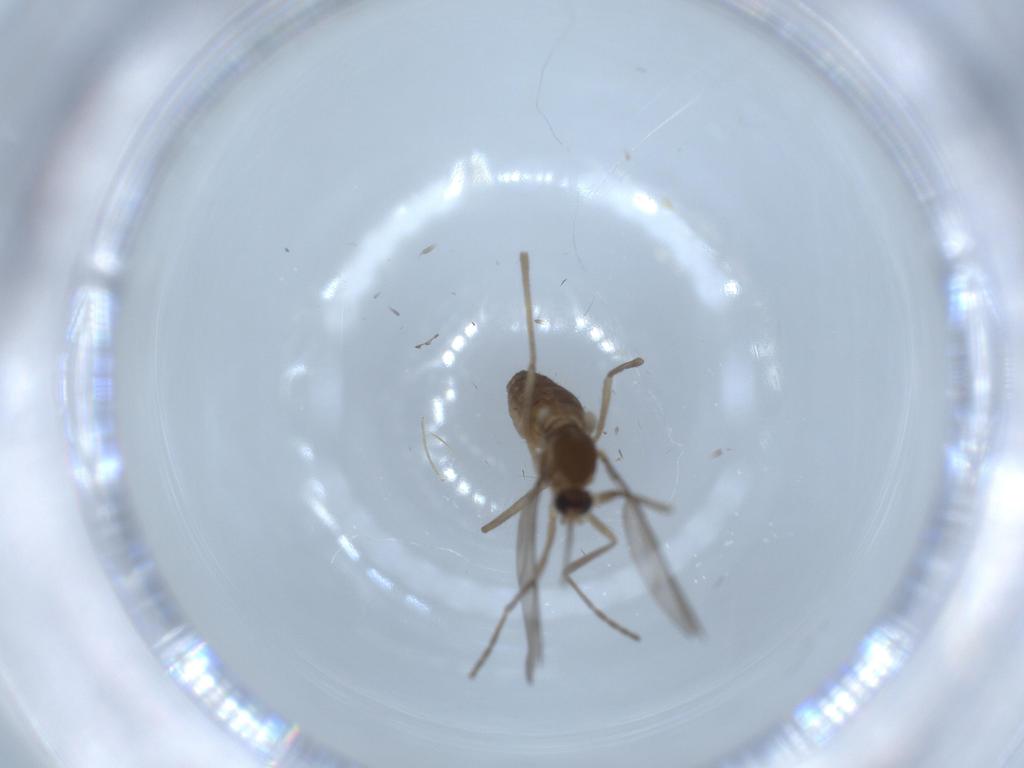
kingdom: Animalia
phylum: Arthropoda
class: Insecta
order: Diptera
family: Cecidomyiidae
